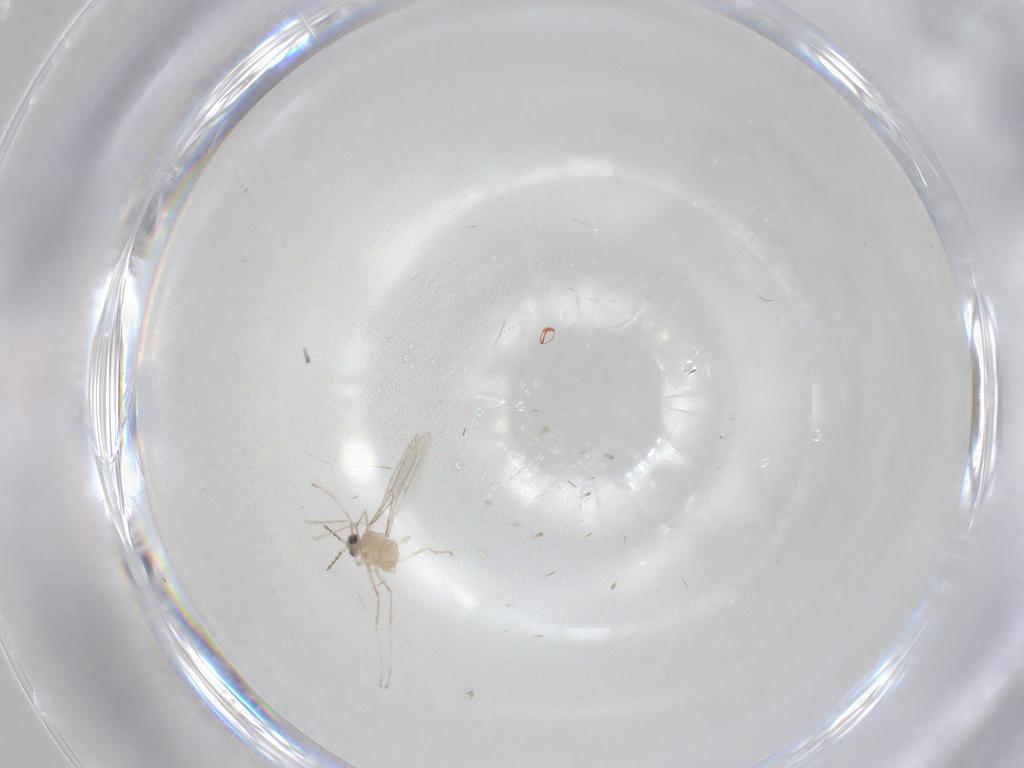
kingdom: Animalia
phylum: Arthropoda
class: Insecta
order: Diptera
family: Cecidomyiidae
